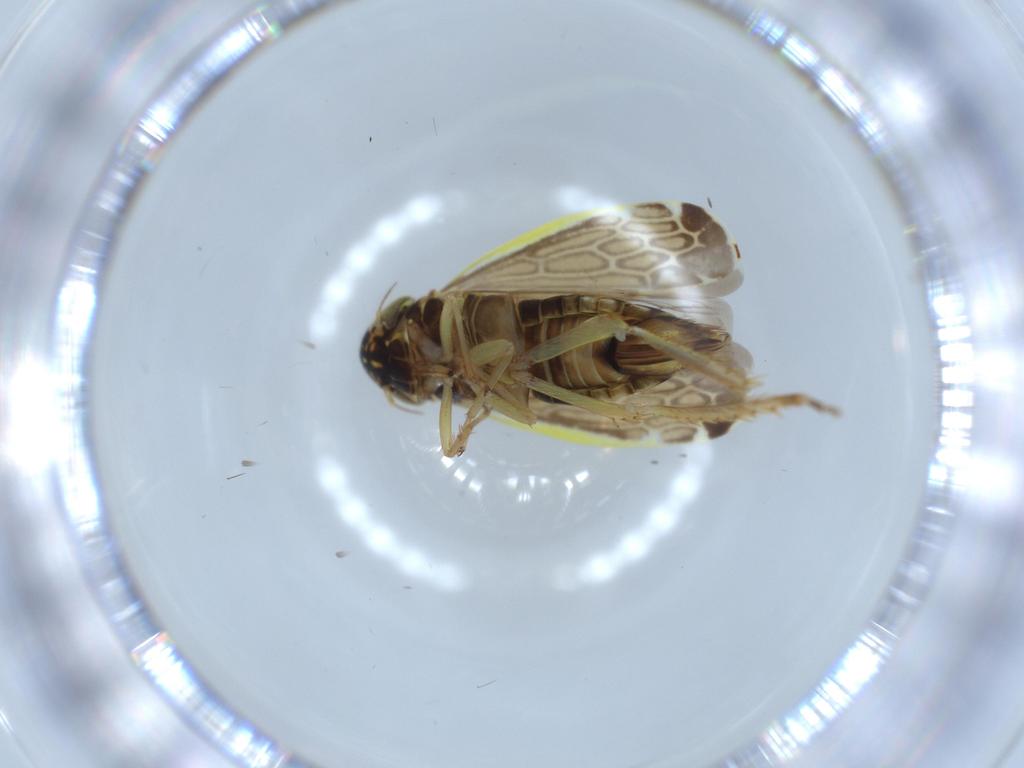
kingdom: Animalia
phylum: Arthropoda
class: Insecta
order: Hemiptera
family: Cicadellidae
